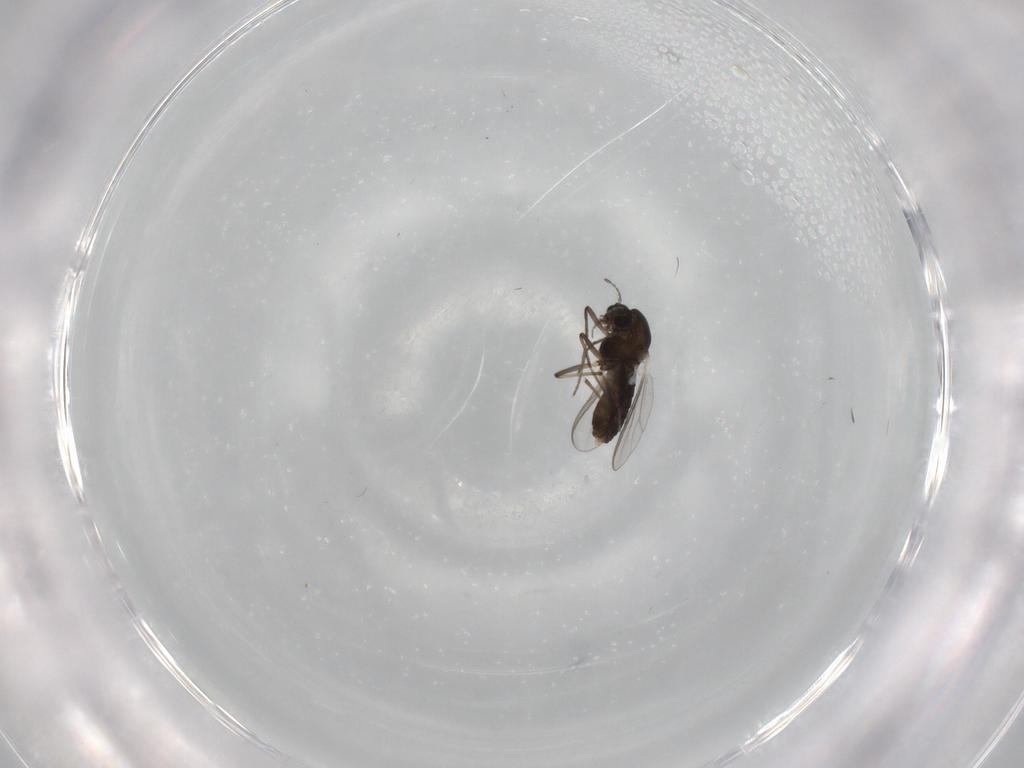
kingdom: Animalia
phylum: Arthropoda
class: Insecta
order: Diptera
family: Chironomidae
